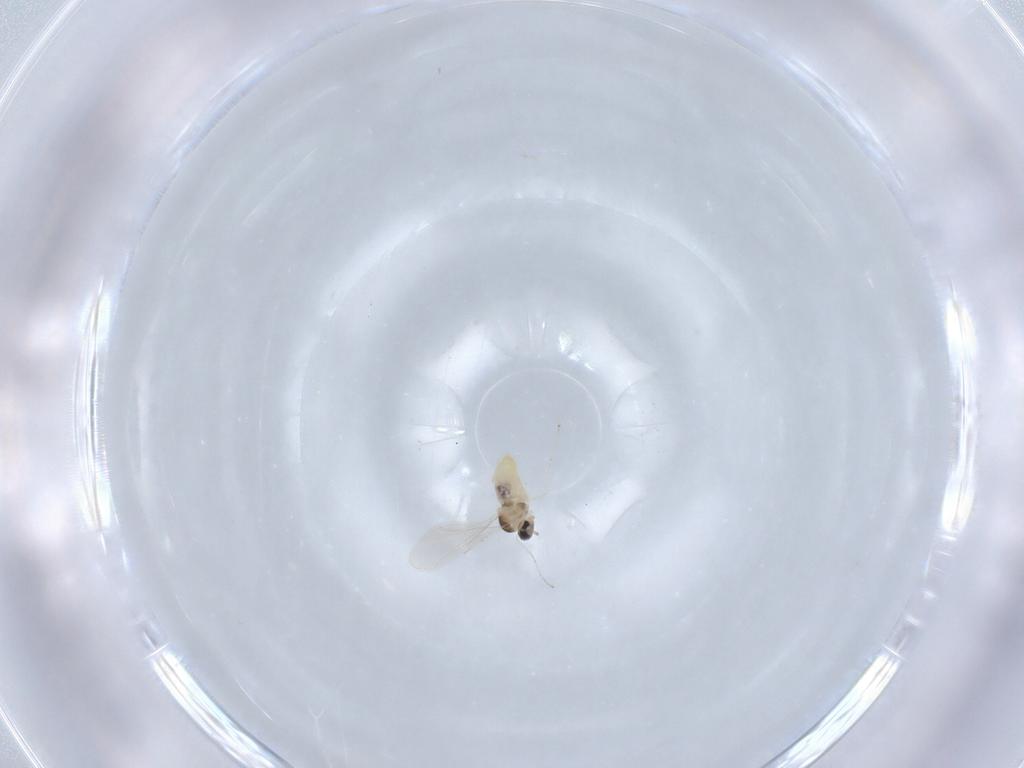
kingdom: Animalia
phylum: Arthropoda
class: Insecta
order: Diptera
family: Cecidomyiidae
